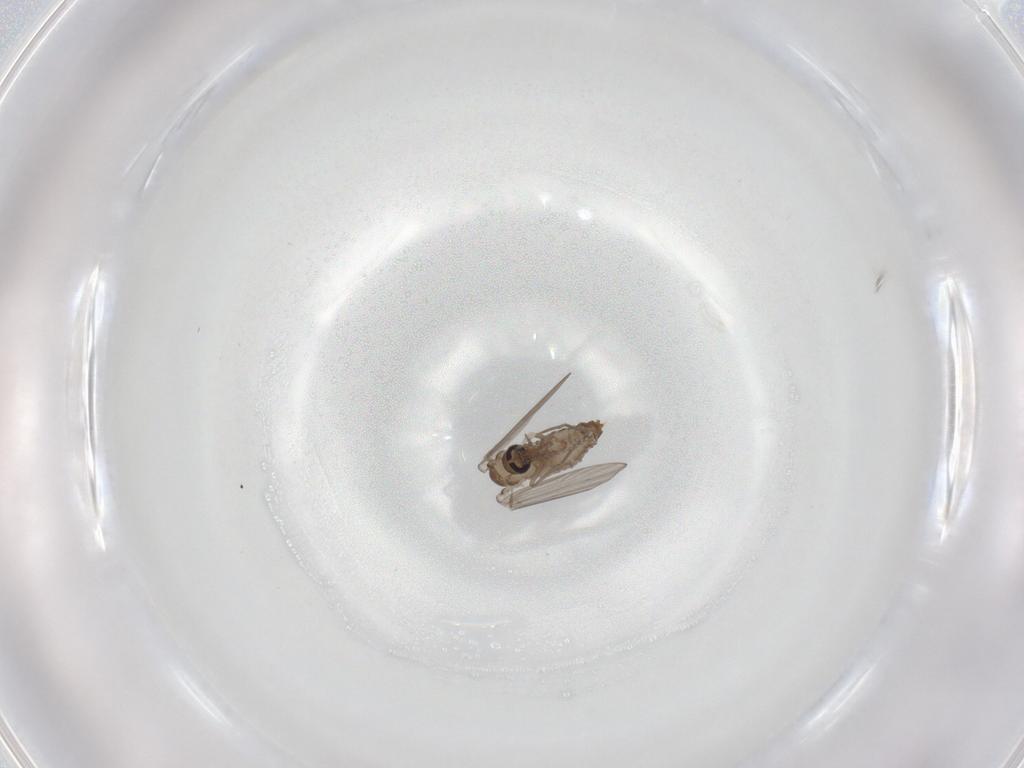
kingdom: Animalia
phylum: Arthropoda
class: Insecta
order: Diptera
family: Psychodidae
